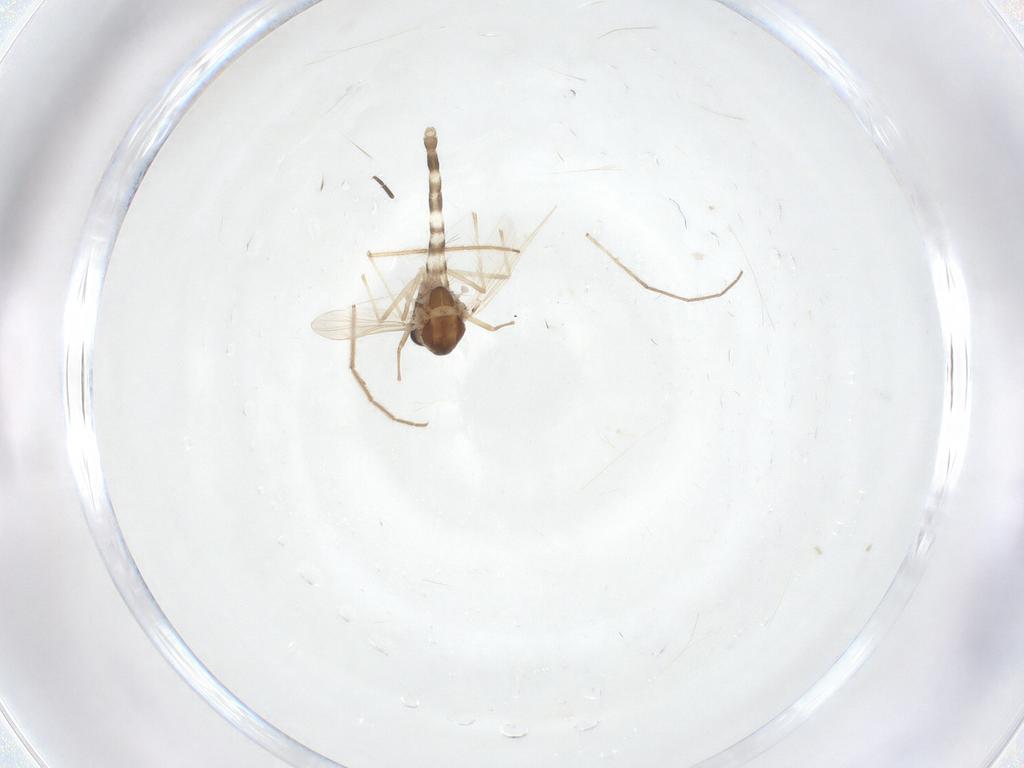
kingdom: Animalia
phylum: Arthropoda
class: Insecta
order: Diptera
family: Chironomidae
